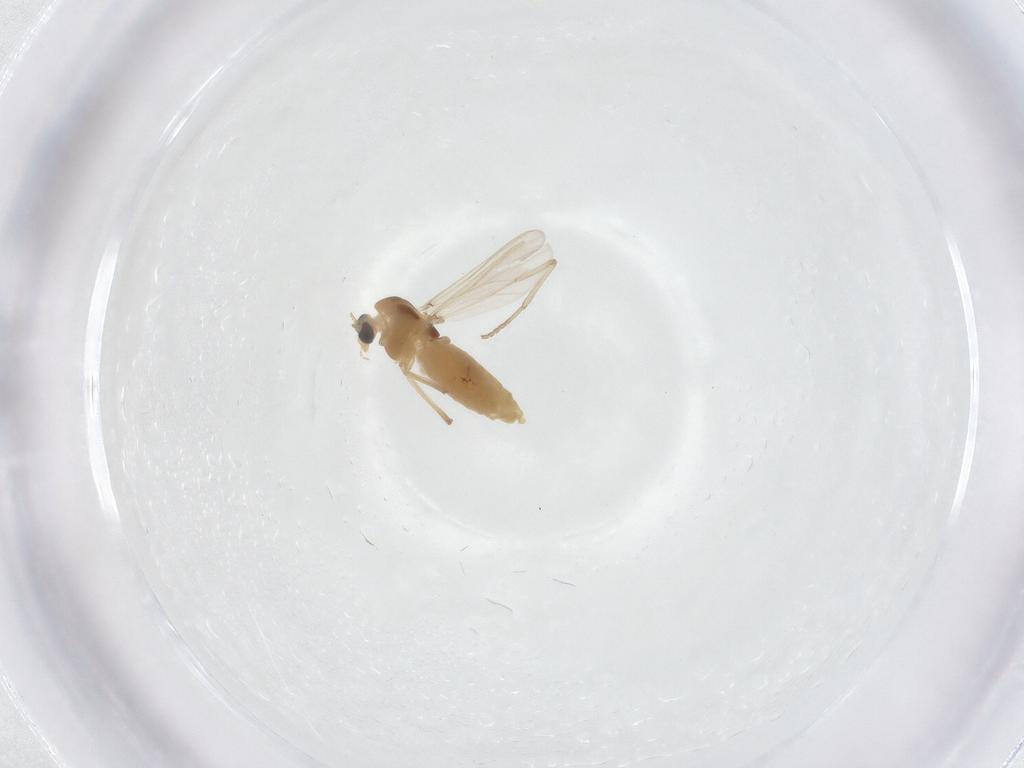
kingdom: Animalia
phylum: Arthropoda
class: Insecta
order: Diptera
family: Chironomidae
